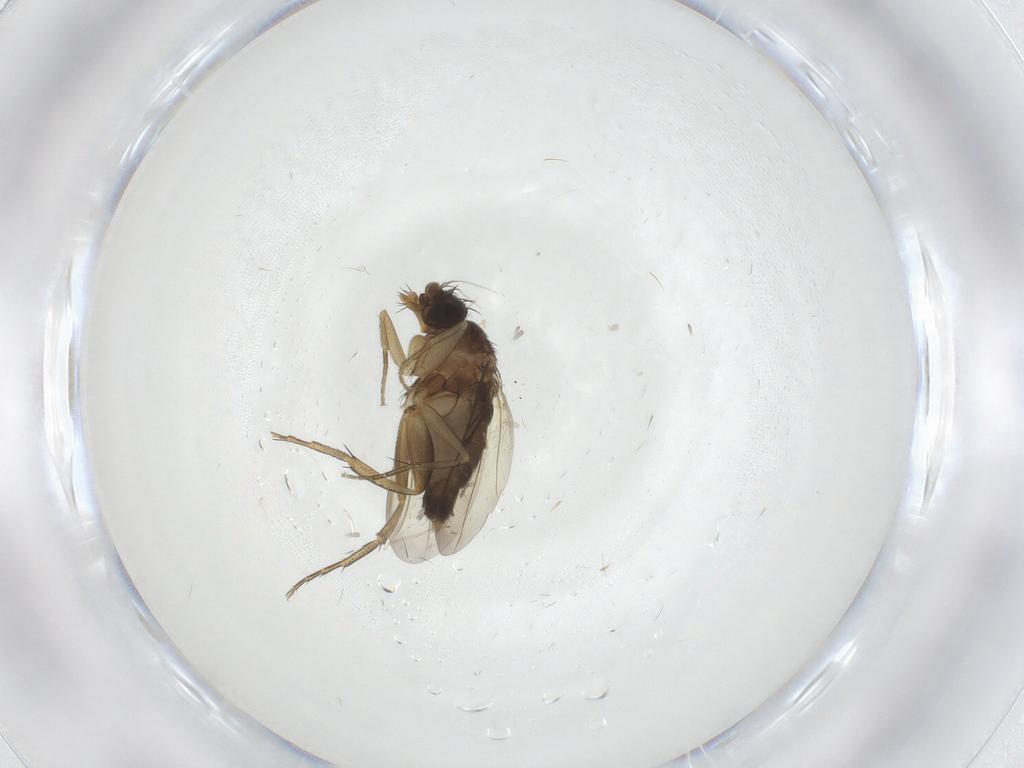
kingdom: Animalia
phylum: Arthropoda
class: Insecta
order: Diptera
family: Phoridae
